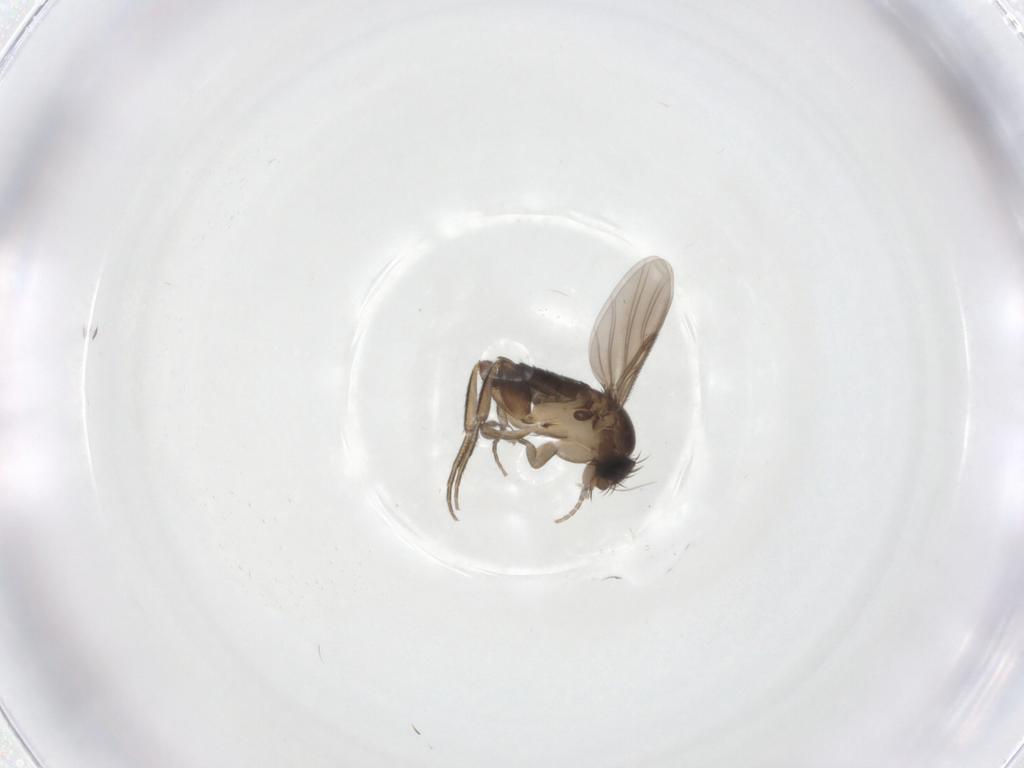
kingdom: Animalia
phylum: Arthropoda
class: Insecta
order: Diptera
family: Phoridae
